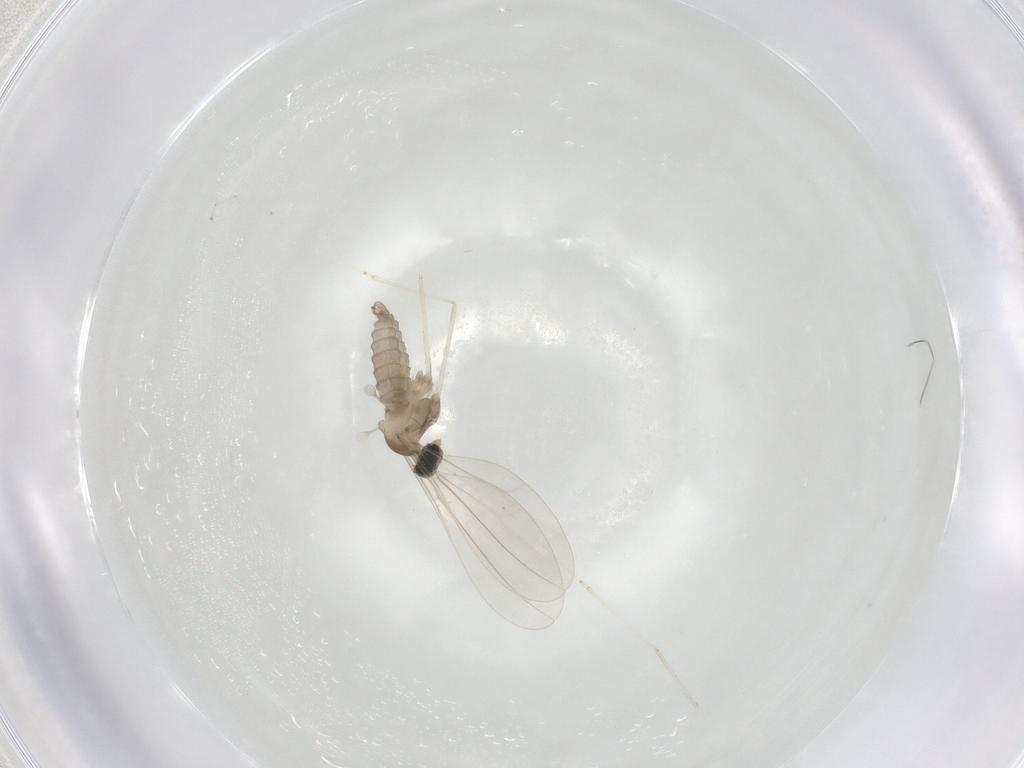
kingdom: Animalia
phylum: Arthropoda
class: Insecta
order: Diptera
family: Cecidomyiidae
